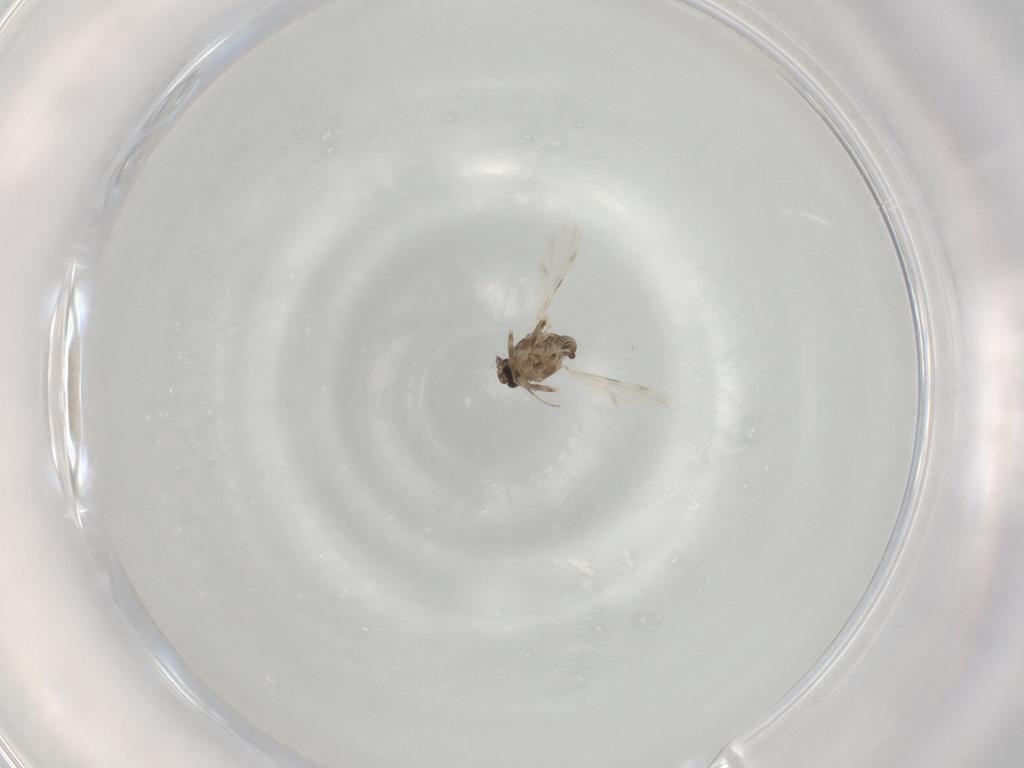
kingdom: Animalia
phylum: Arthropoda
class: Insecta
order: Diptera
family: Ceratopogonidae
